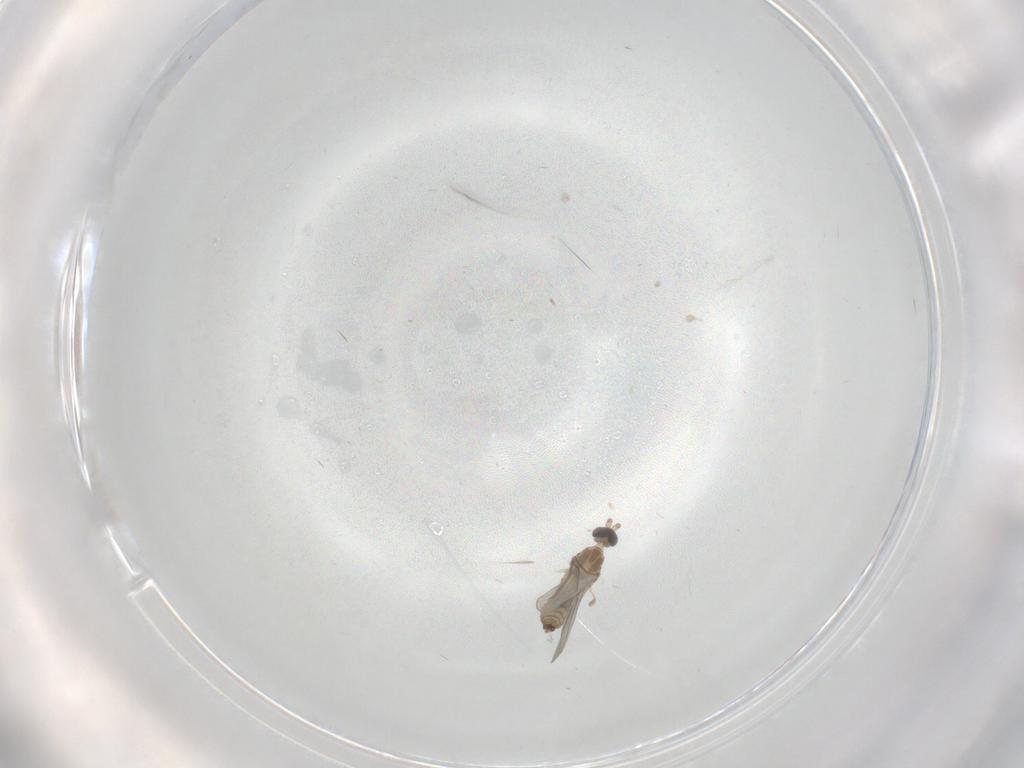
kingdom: Animalia
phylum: Arthropoda
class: Insecta
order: Diptera
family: Cecidomyiidae
